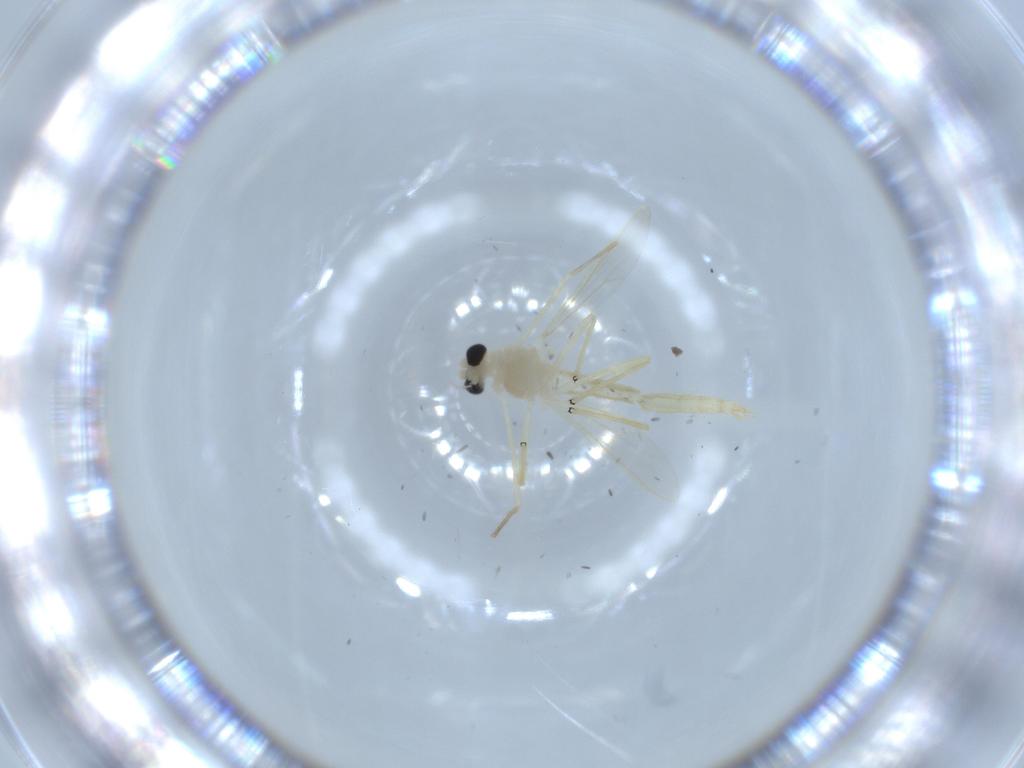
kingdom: Animalia
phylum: Arthropoda
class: Insecta
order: Diptera
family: Chironomidae
